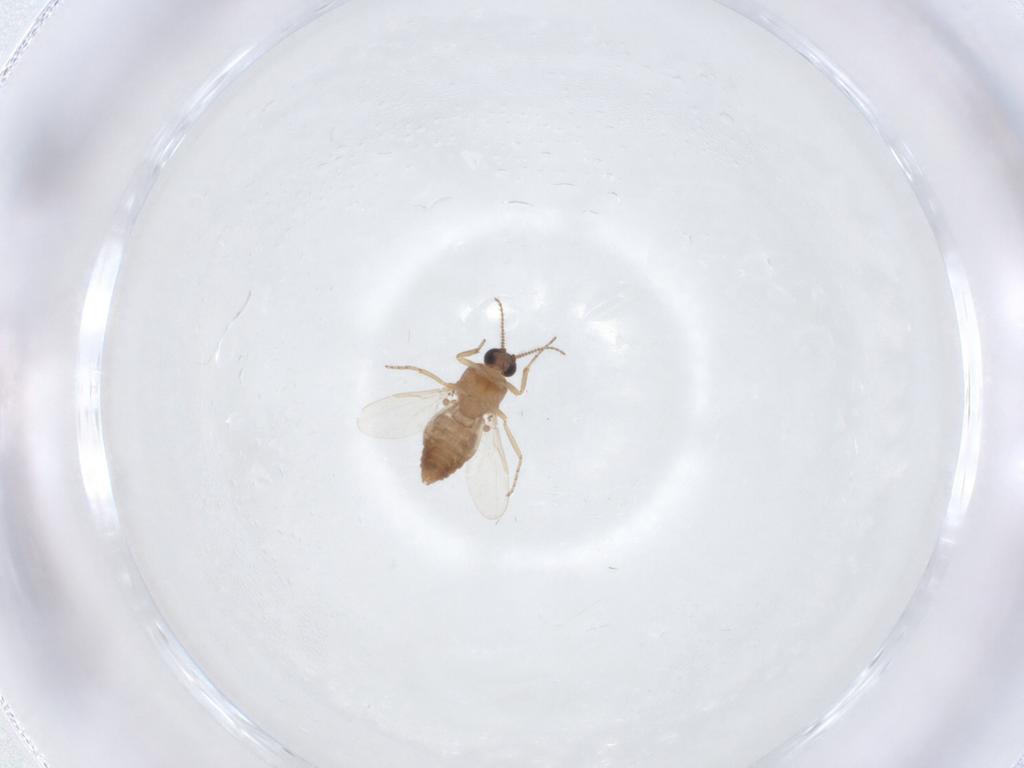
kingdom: Animalia
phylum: Arthropoda
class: Insecta
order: Diptera
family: Ceratopogonidae
